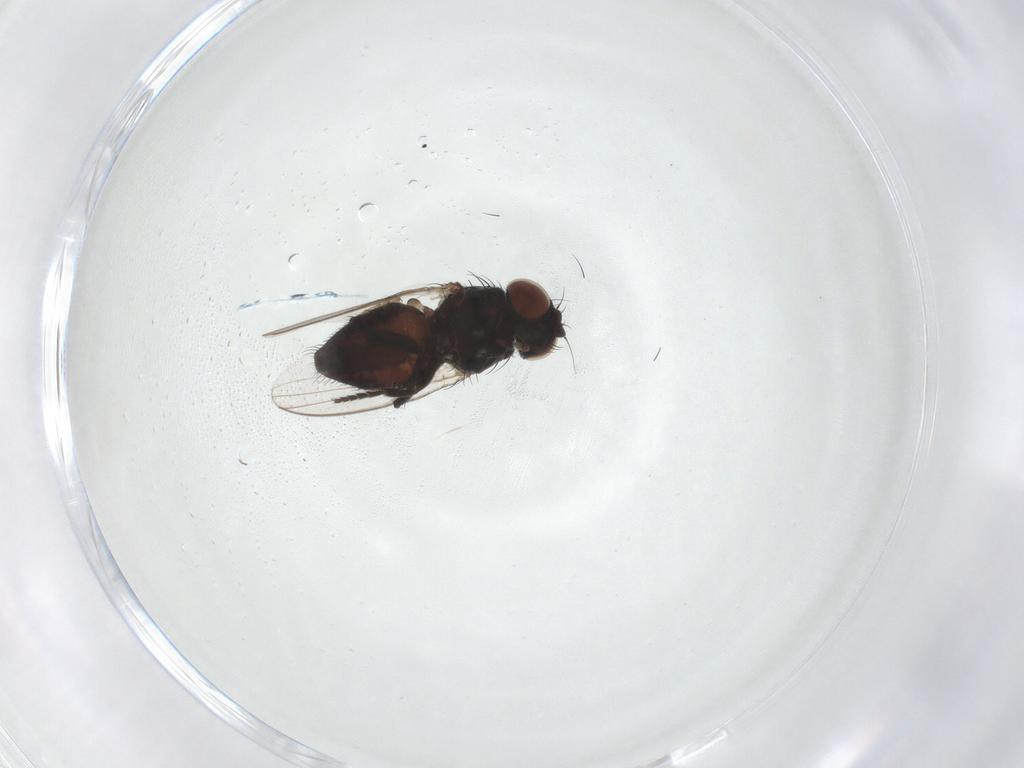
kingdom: Animalia
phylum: Arthropoda
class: Insecta
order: Diptera
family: Chloropidae
